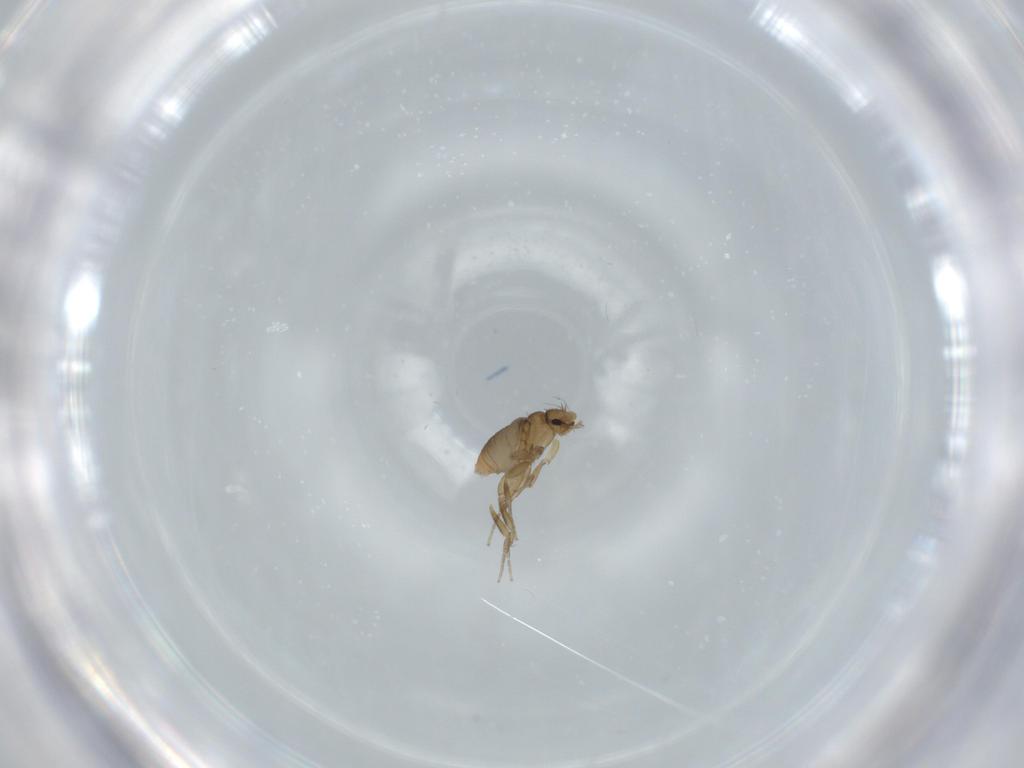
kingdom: Animalia
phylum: Arthropoda
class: Insecta
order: Diptera
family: Phoridae
